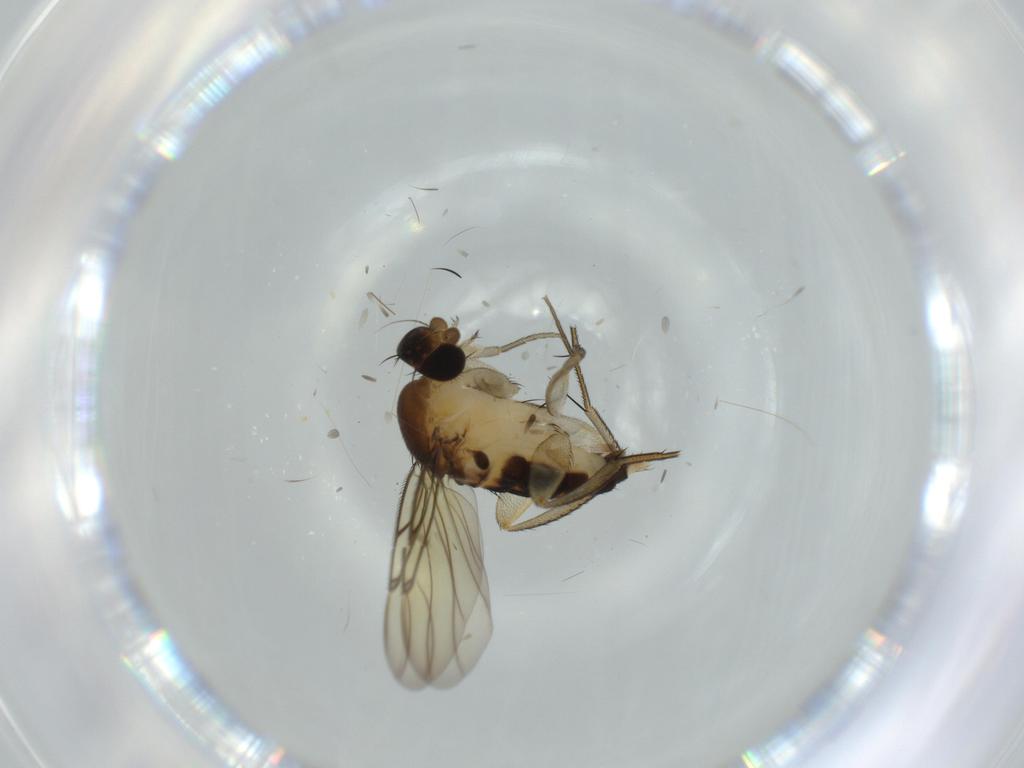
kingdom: Animalia
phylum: Arthropoda
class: Insecta
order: Diptera
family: Phoridae
